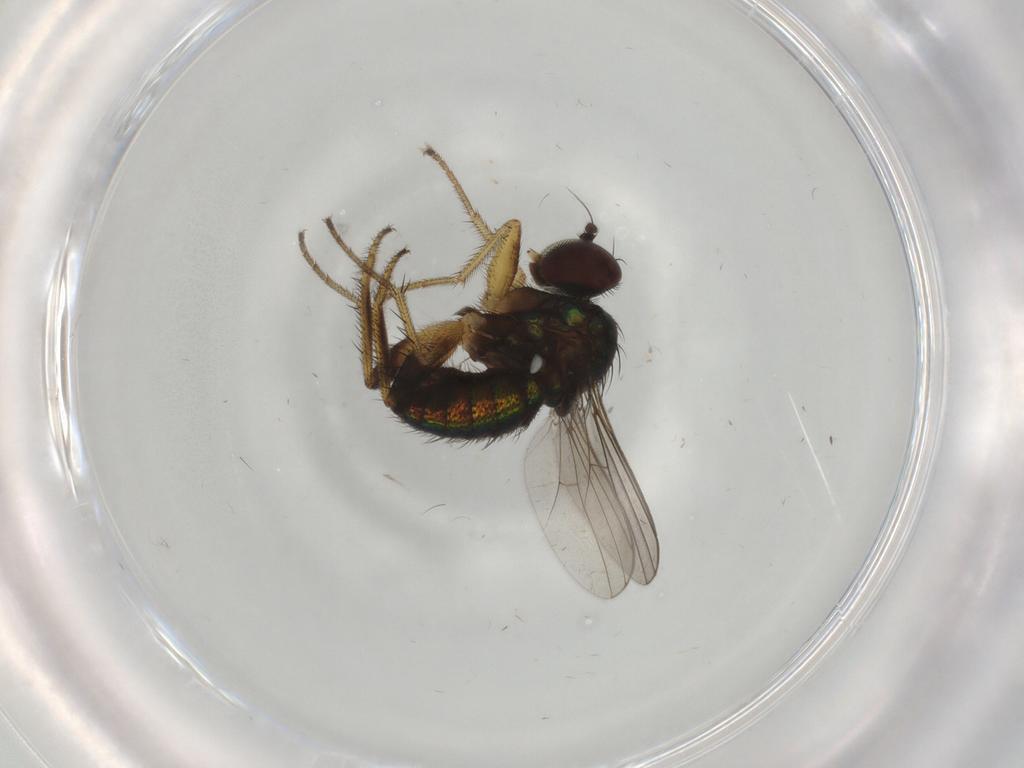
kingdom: Animalia
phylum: Arthropoda
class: Insecta
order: Diptera
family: Dolichopodidae
